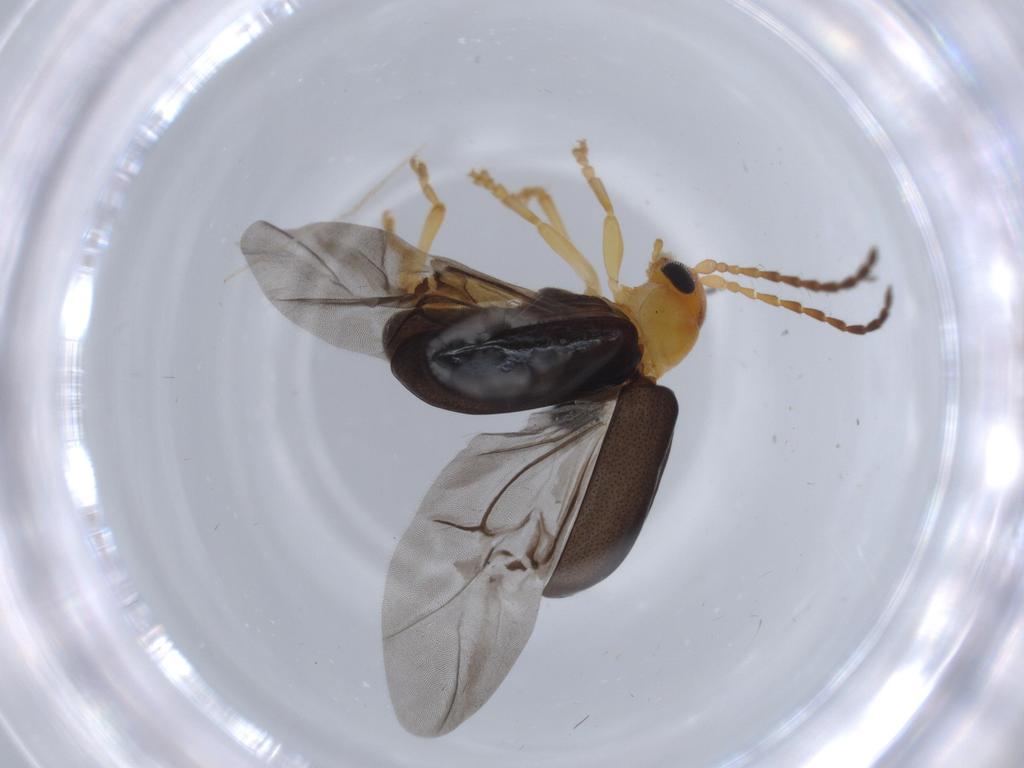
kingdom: Animalia
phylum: Arthropoda
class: Insecta
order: Coleoptera
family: Chrysomelidae
